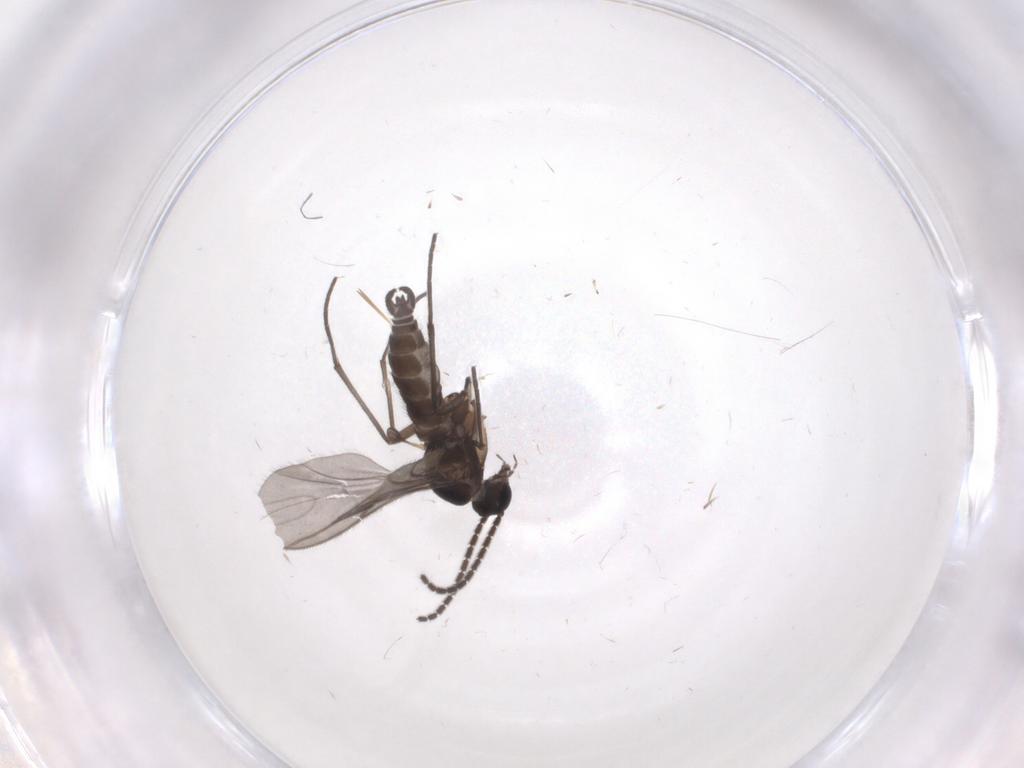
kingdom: Animalia
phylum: Arthropoda
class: Insecta
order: Diptera
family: Sciaridae
